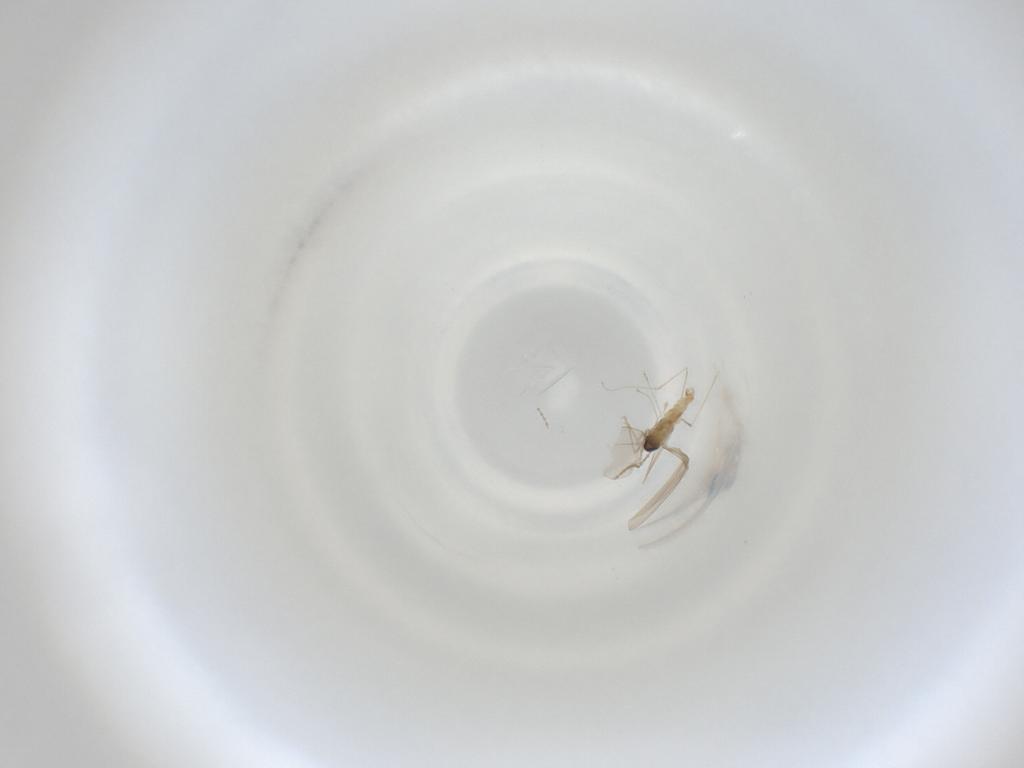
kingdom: Animalia
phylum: Arthropoda
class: Insecta
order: Diptera
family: Cecidomyiidae
